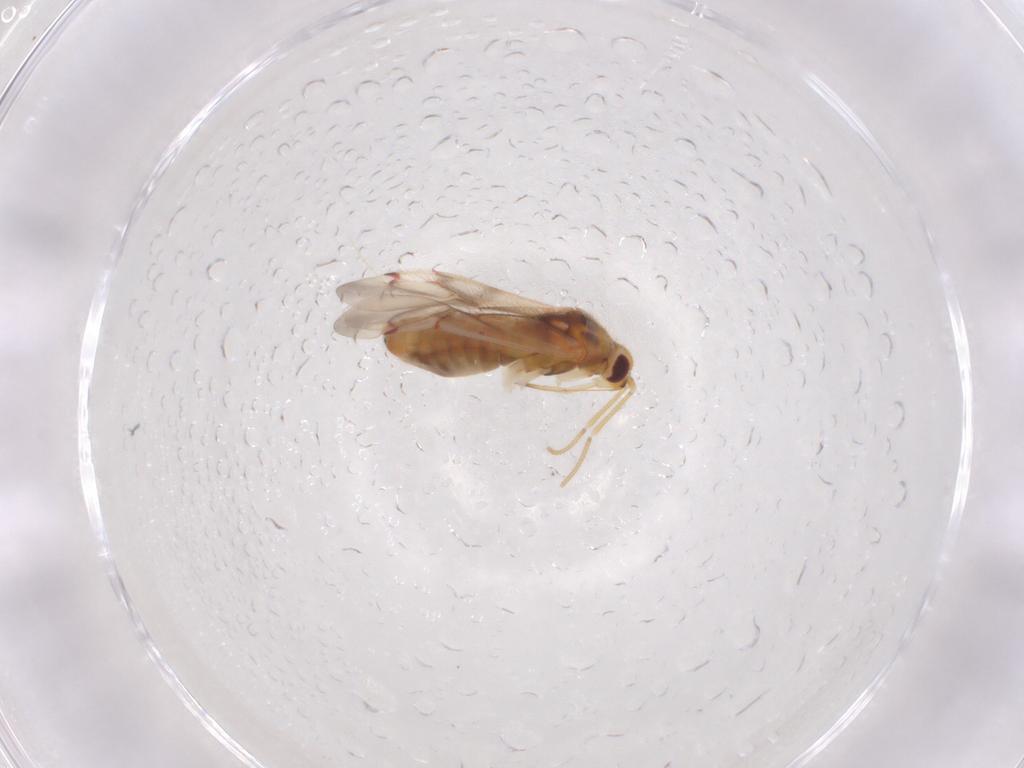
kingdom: Animalia
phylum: Arthropoda
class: Insecta
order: Hemiptera
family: Miridae
